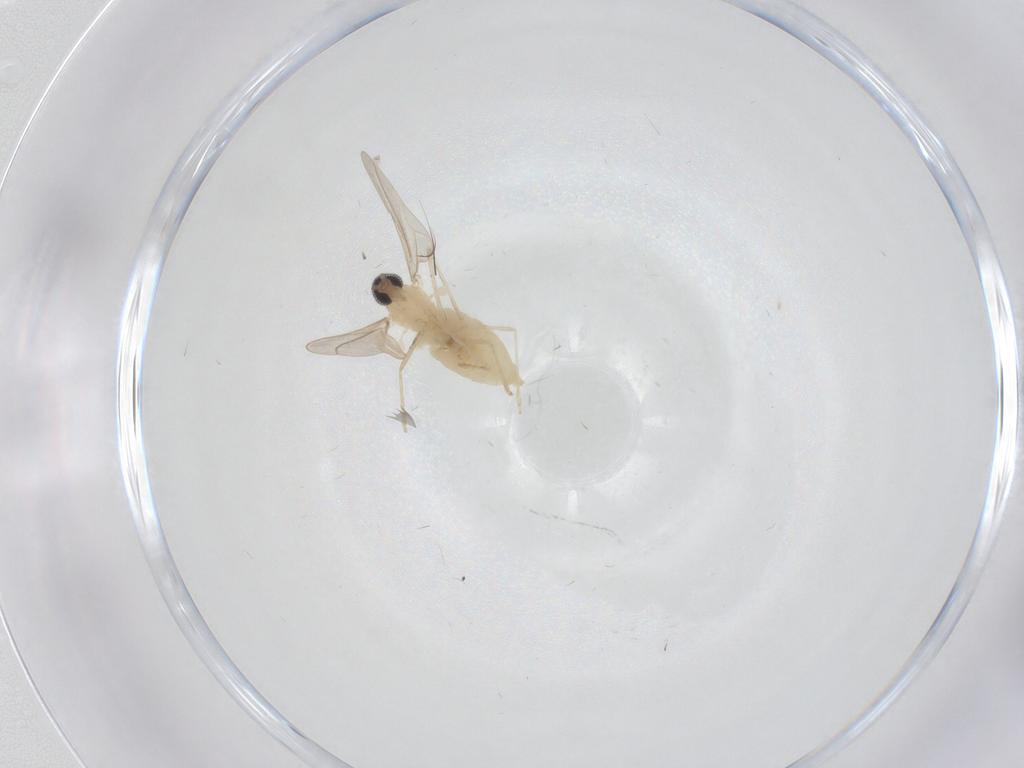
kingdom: Animalia
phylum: Arthropoda
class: Insecta
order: Diptera
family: Cecidomyiidae
